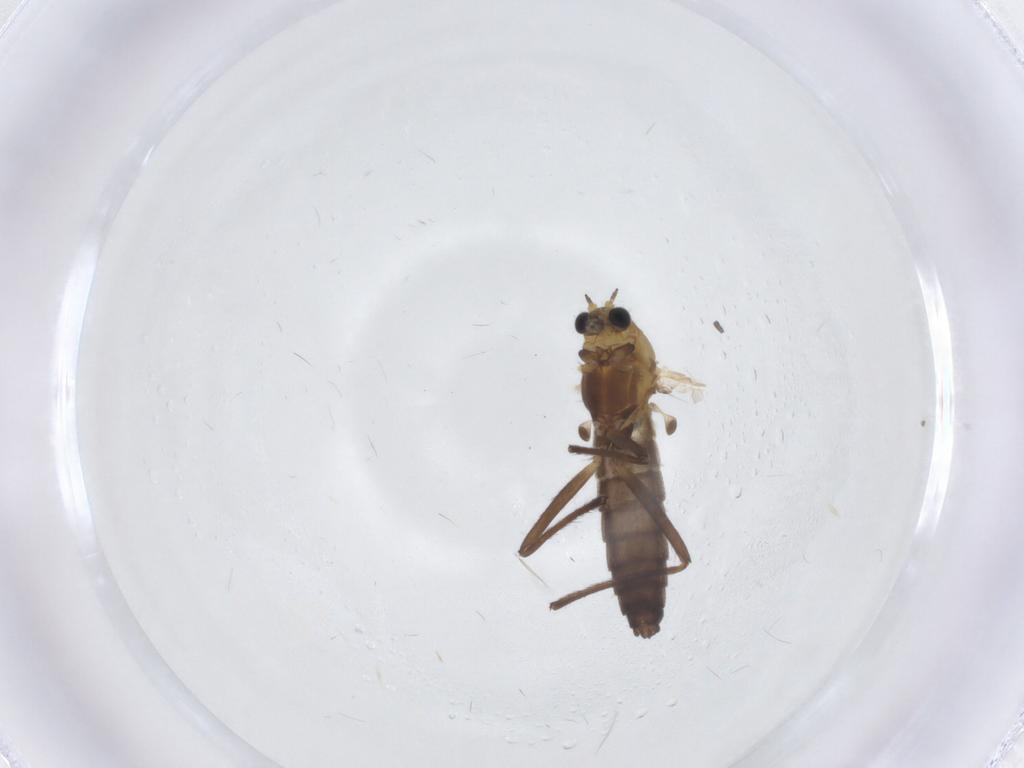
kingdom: Animalia
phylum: Arthropoda
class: Insecta
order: Diptera
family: Chironomidae
